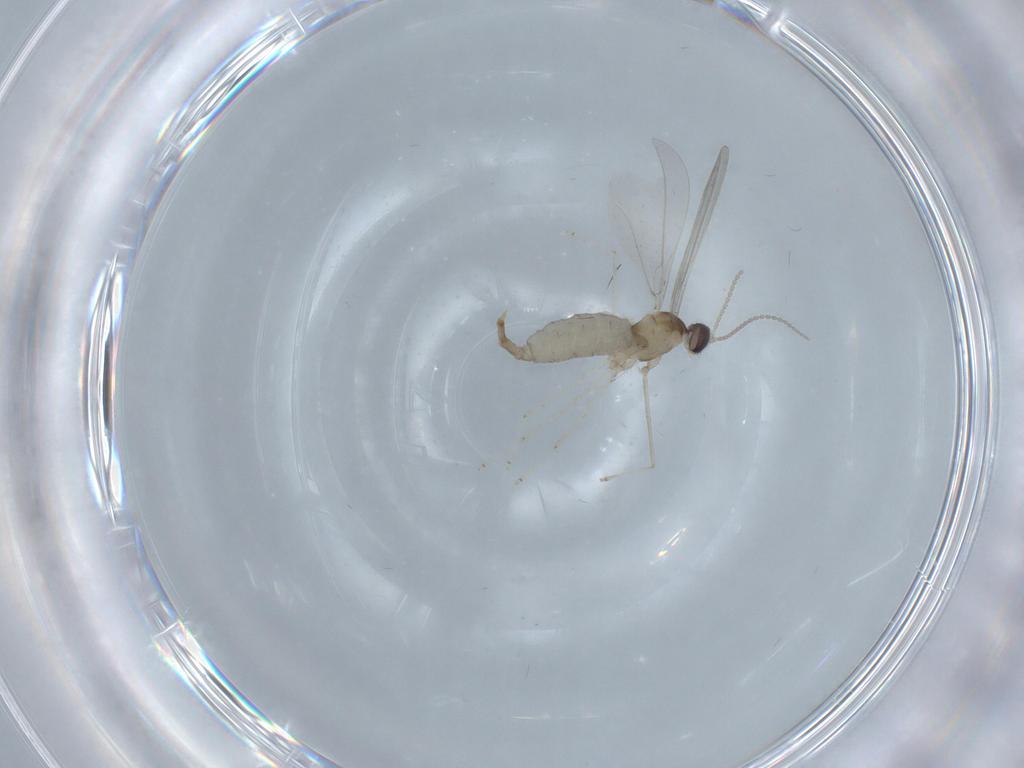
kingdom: Animalia
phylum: Arthropoda
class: Insecta
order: Diptera
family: Cecidomyiidae
